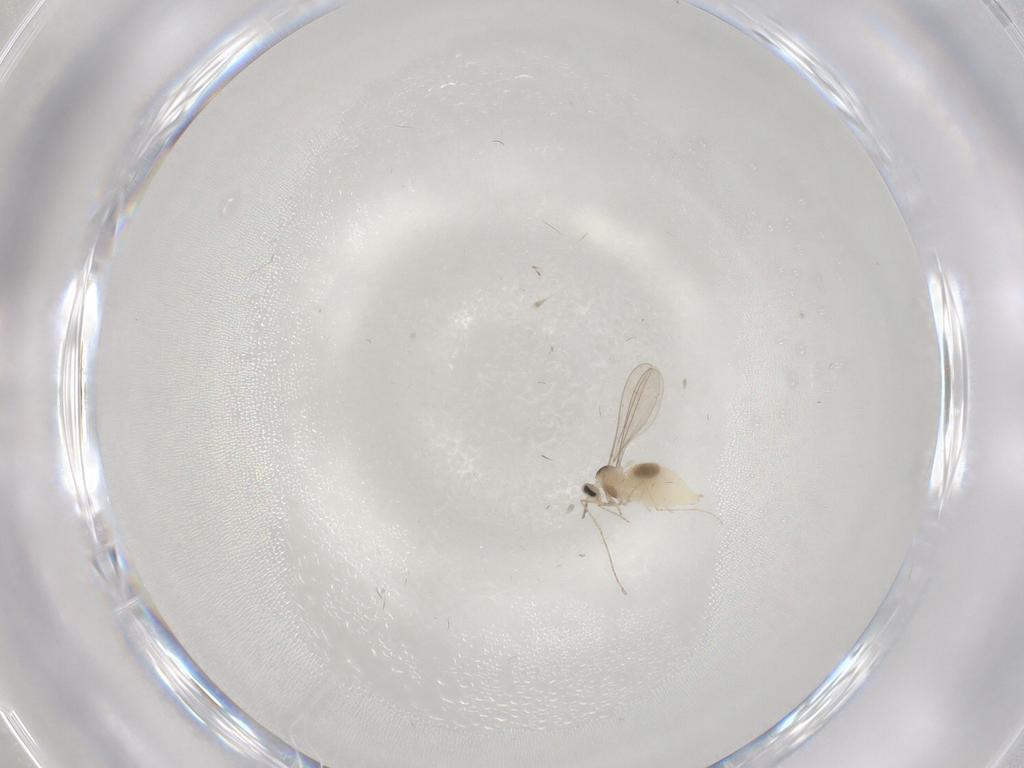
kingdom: Animalia
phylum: Arthropoda
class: Insecta
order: Diptera
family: Chironomidae
